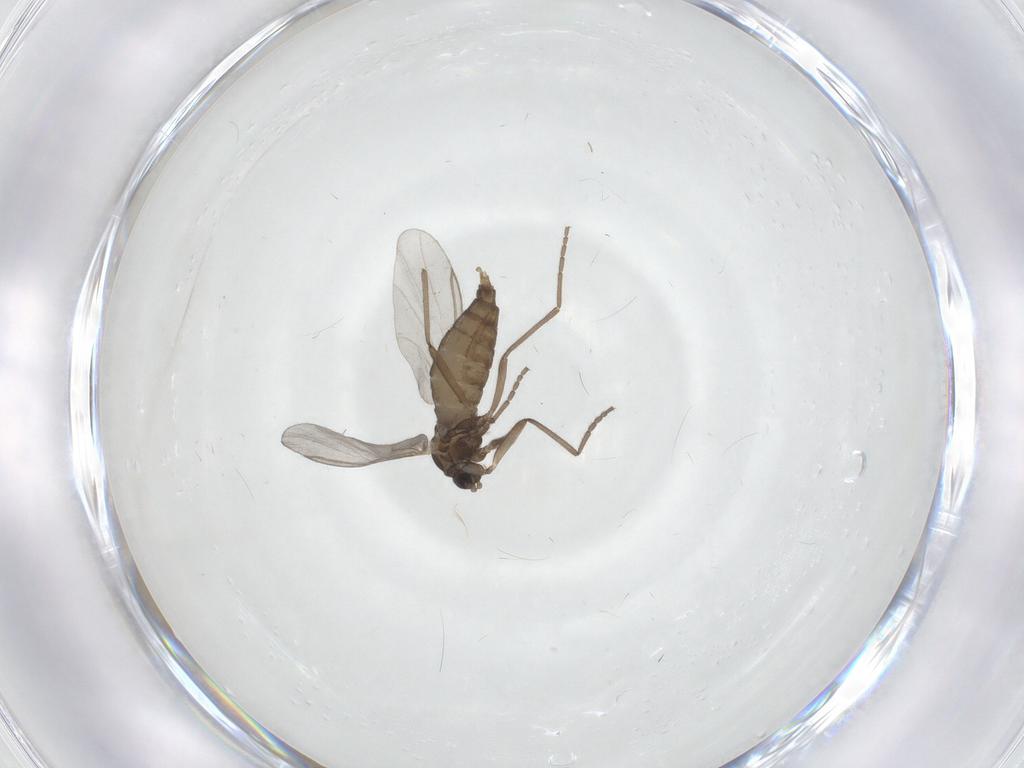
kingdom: Animalia
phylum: Arthropoda
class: Insecta
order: Diptera
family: Cecidomyiidae
